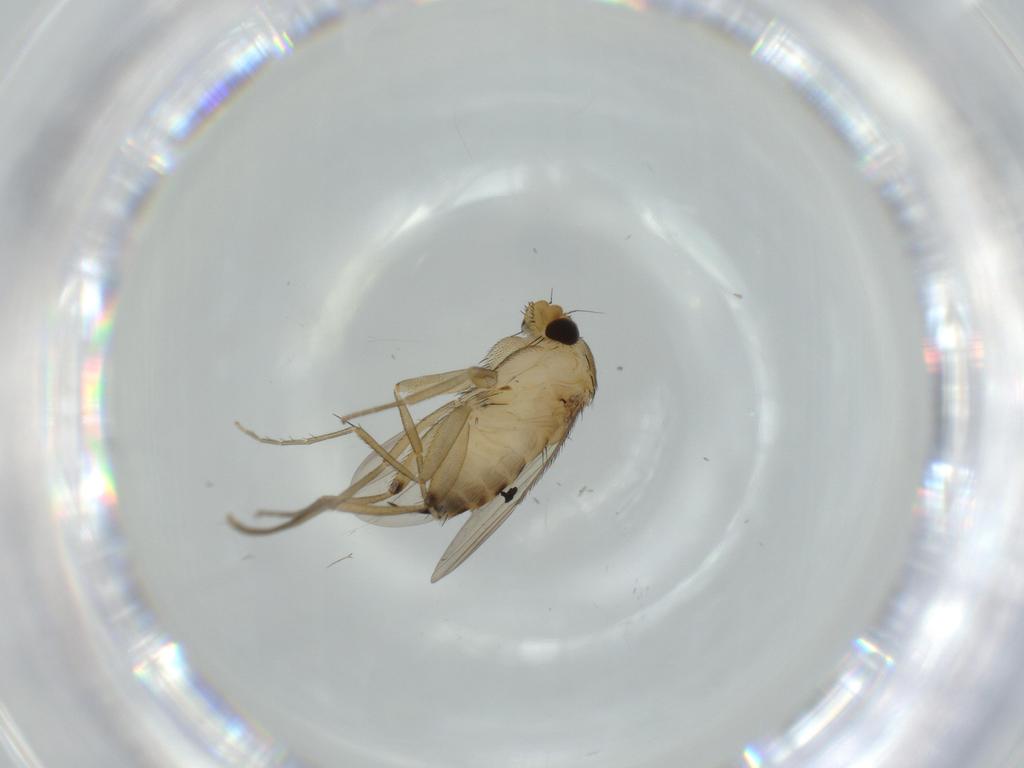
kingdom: Animalia
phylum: Arthropoda
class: Insecta
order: Diptera
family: Phoridae
